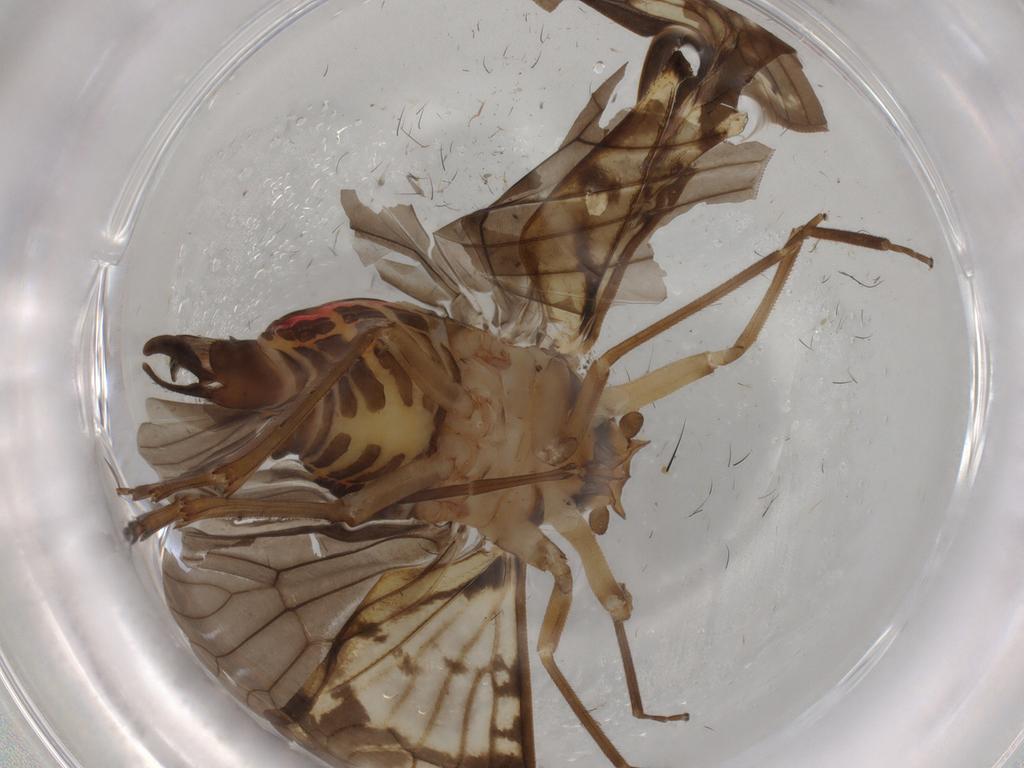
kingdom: Animalia
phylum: Arthropoda
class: Insecta
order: Hemiptera
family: Cixiidae
